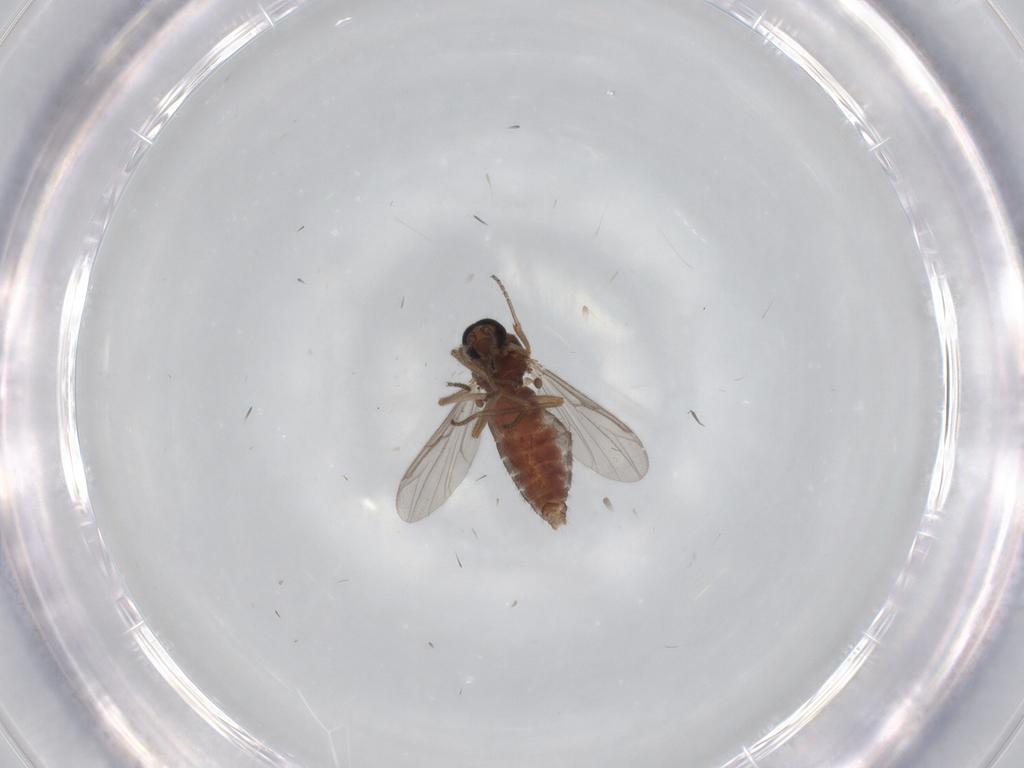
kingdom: Animalia
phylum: Arthropoda
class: Insecta
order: Diptera
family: Ceratopogonidae
